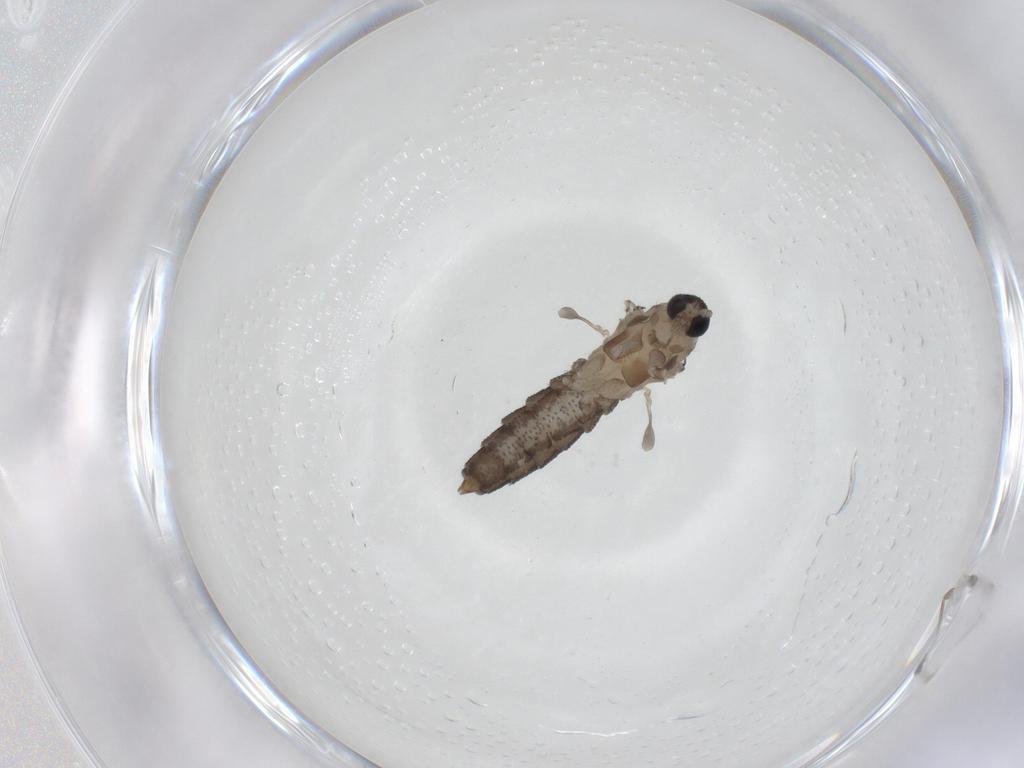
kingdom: Animalia
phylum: Arthropoda
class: Insecta
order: Diptera
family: Cecidomyiidae
